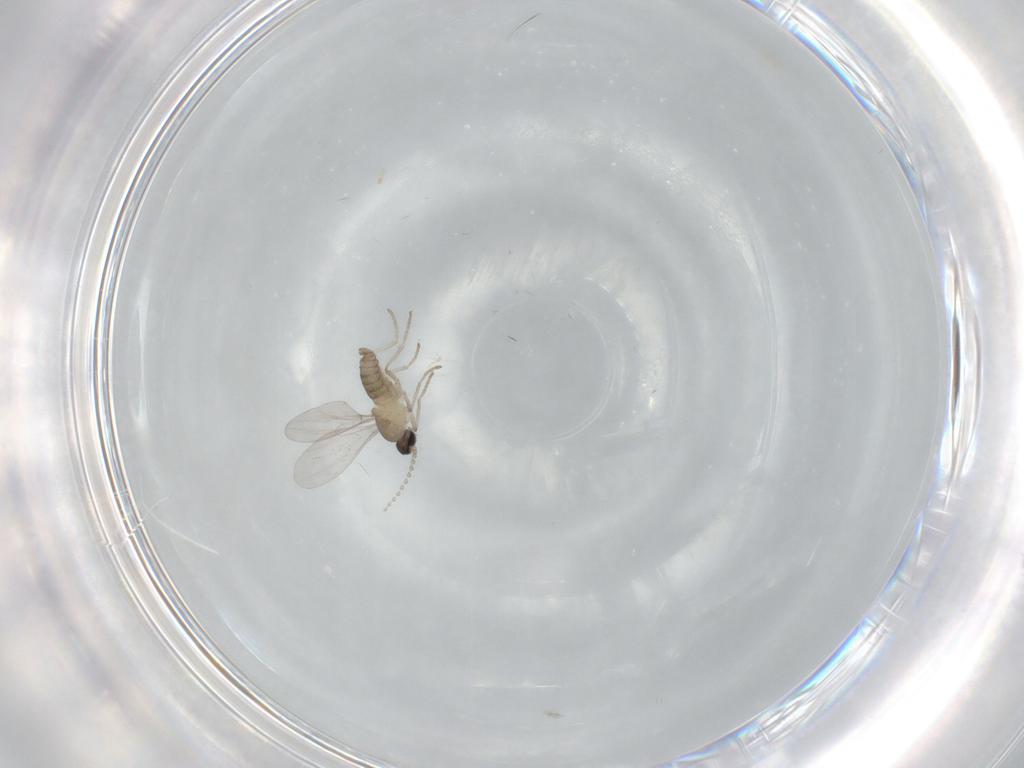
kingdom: Animalia
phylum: Arthropoda
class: Insecta
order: Diptera
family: Cecidomyiidae
